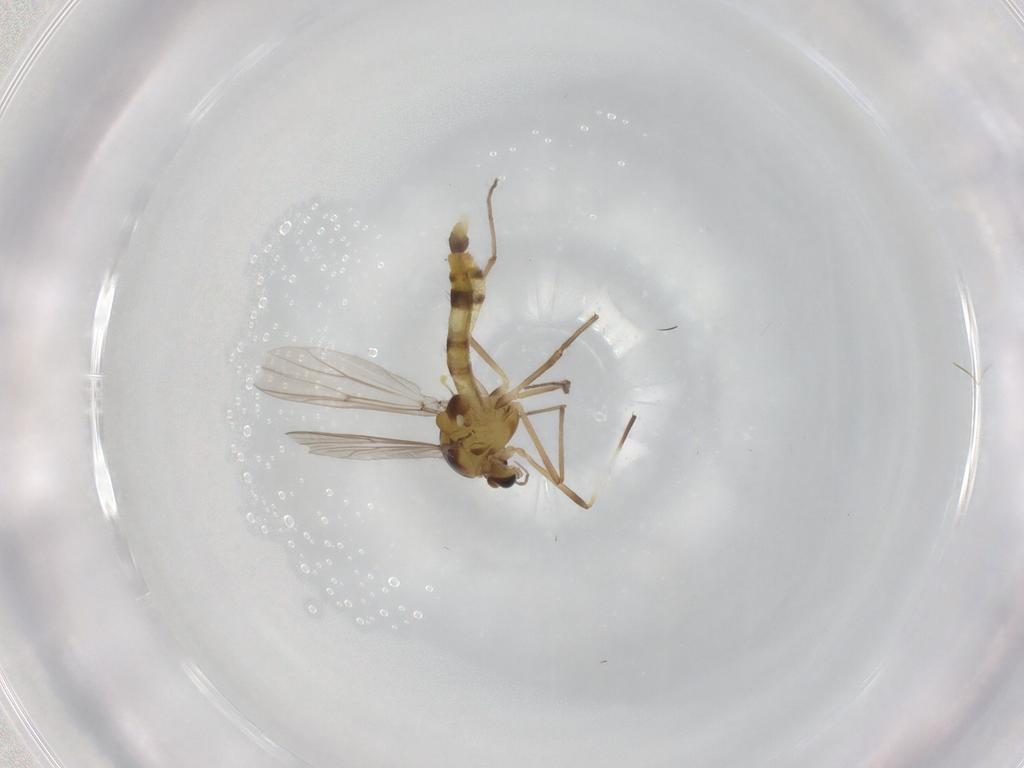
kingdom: Animalia
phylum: Arthropoda
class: Insecta
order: Diptera
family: Chironomidae
